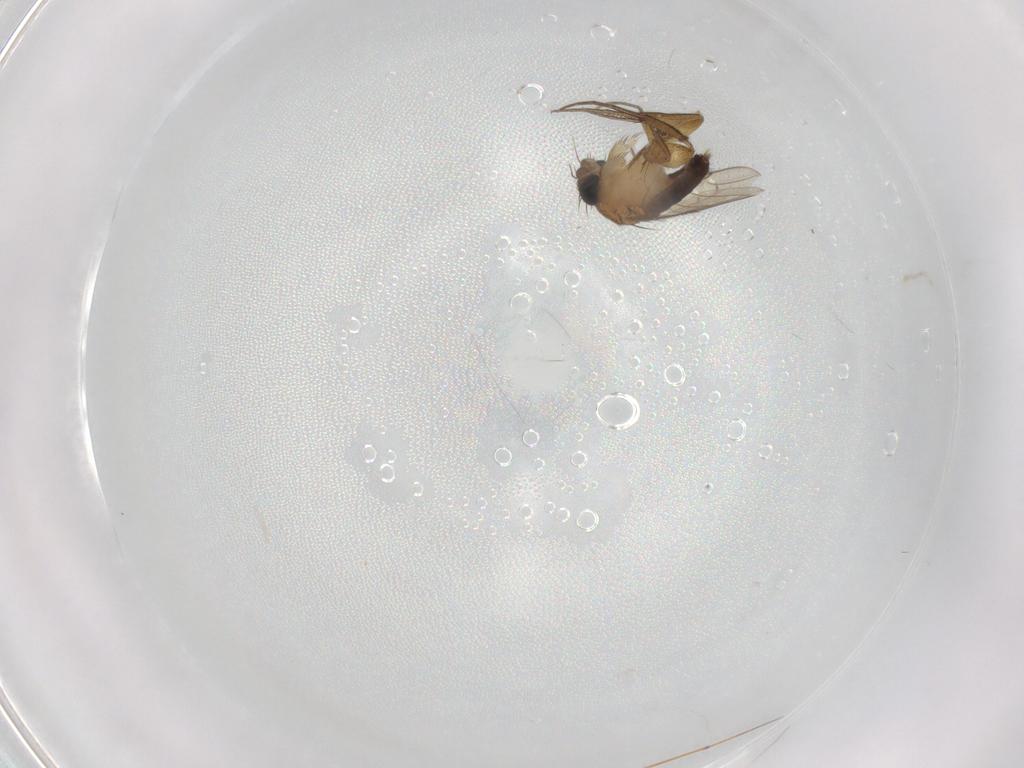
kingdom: Animalia
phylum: Arthropoda
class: Insecta
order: Diptera
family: Sciaridae
